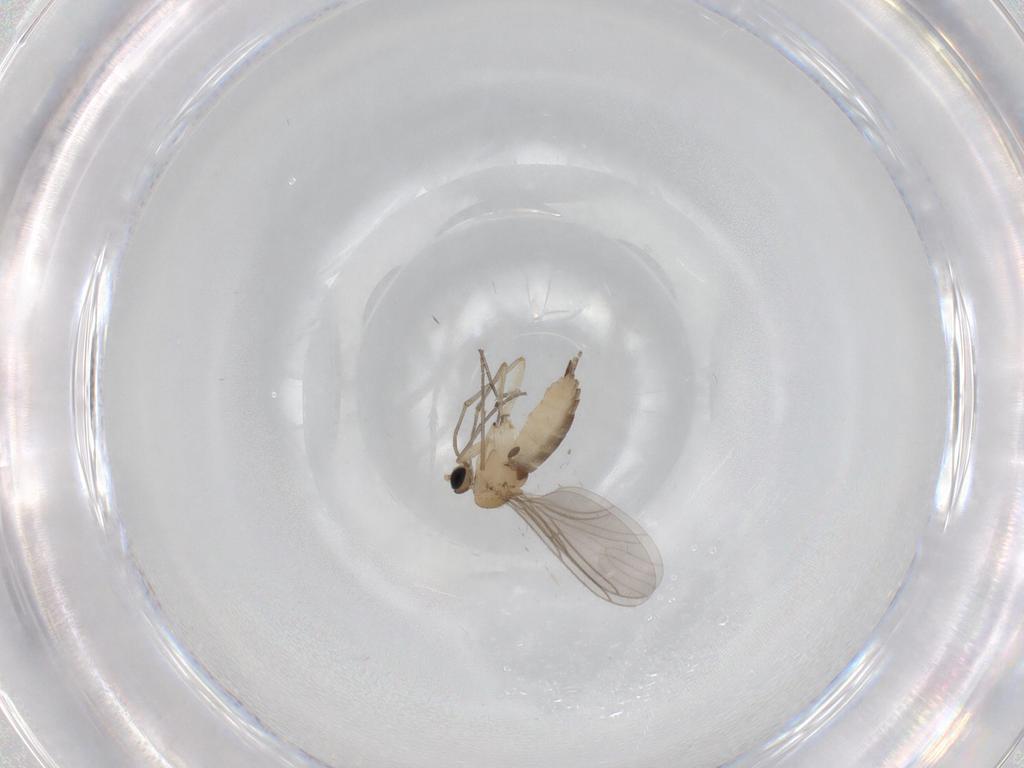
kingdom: Animalia
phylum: Arthropoda
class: Insecta
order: Diptera
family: Sciaridae
